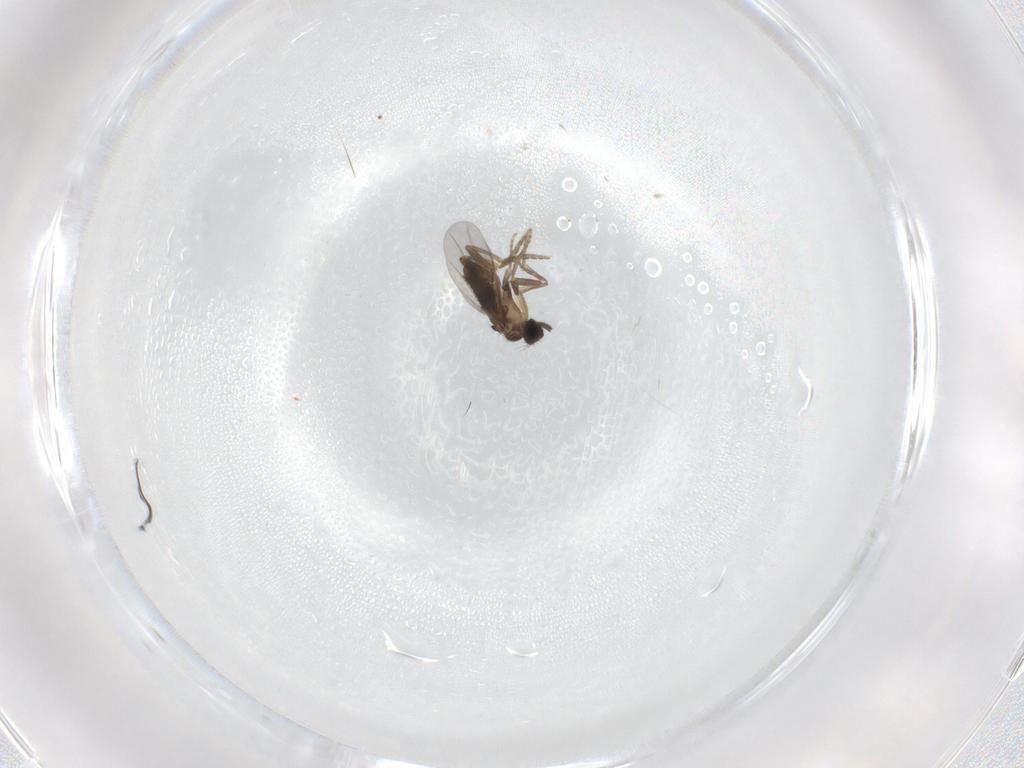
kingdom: Animalia
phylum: Arthropoda
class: Insecta
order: Diptera
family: Chironomidae
